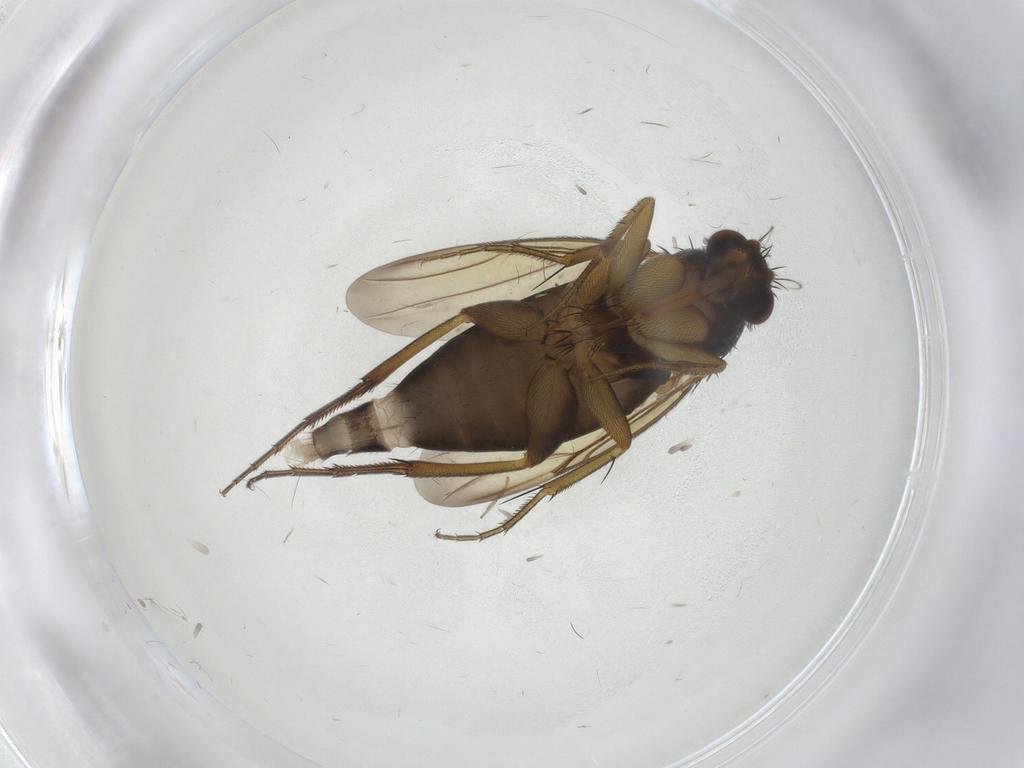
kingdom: Animalia
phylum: Arthropoda
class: Insecta
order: Diptera
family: Phoridae
